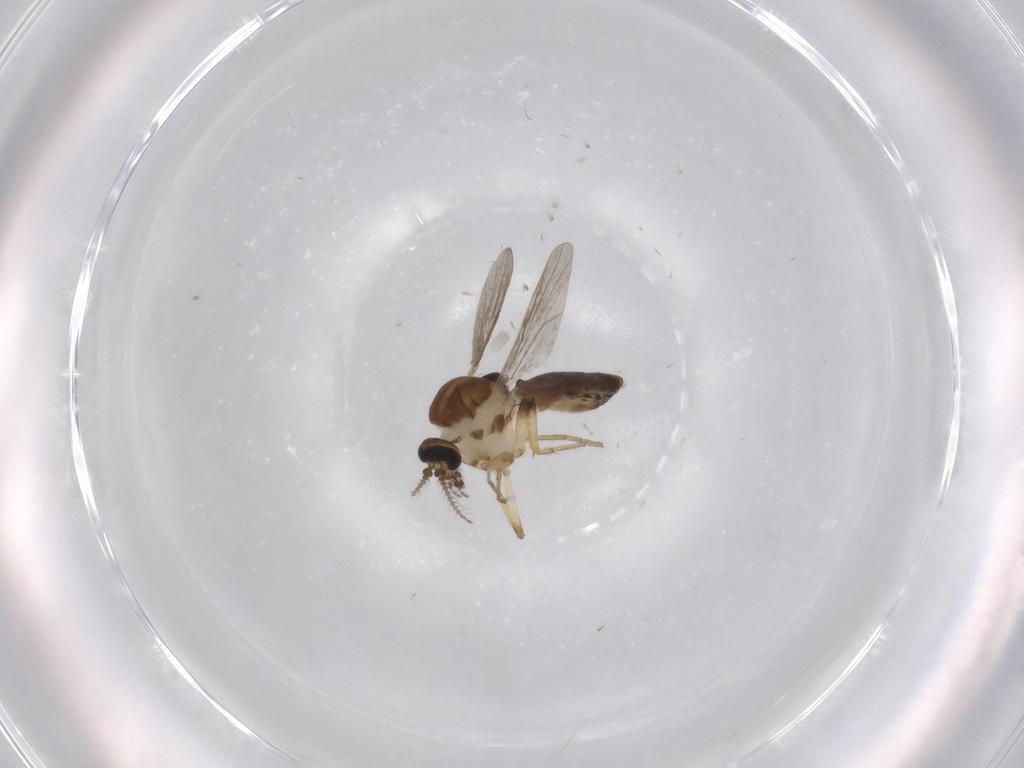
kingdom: Animalia
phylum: Arthropoda
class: Insecta
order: Diptera
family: Ceratopogonidae
